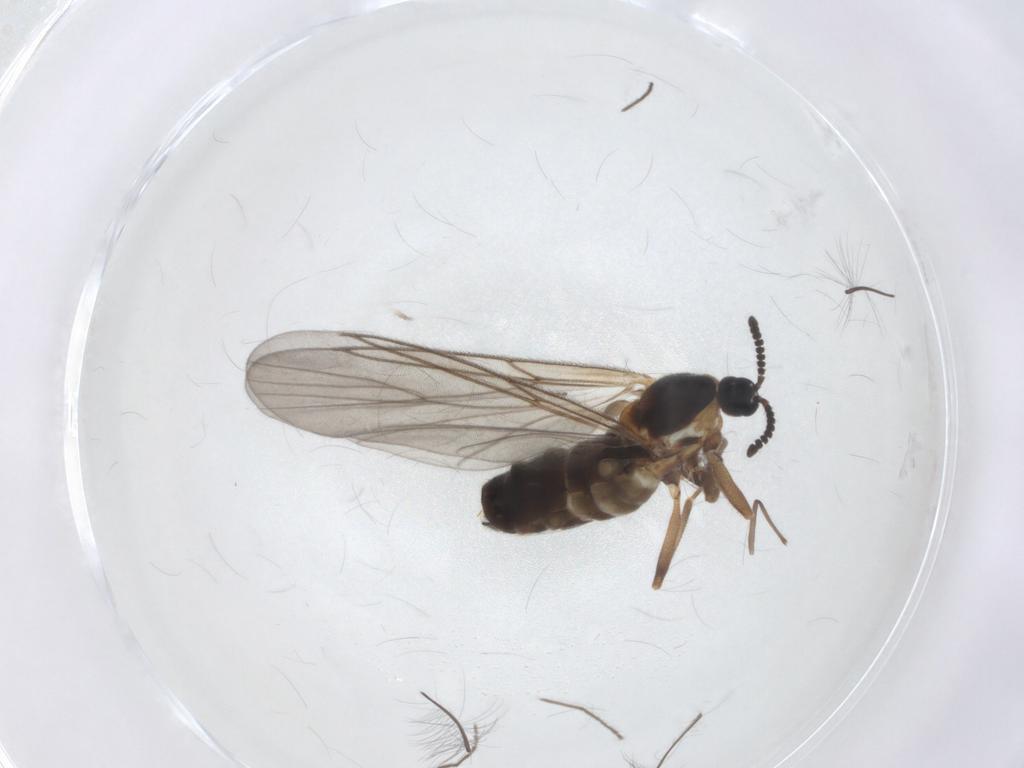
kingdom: Animalia
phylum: Arthropoda
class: Insecta
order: Diptera
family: Scatopsidae
